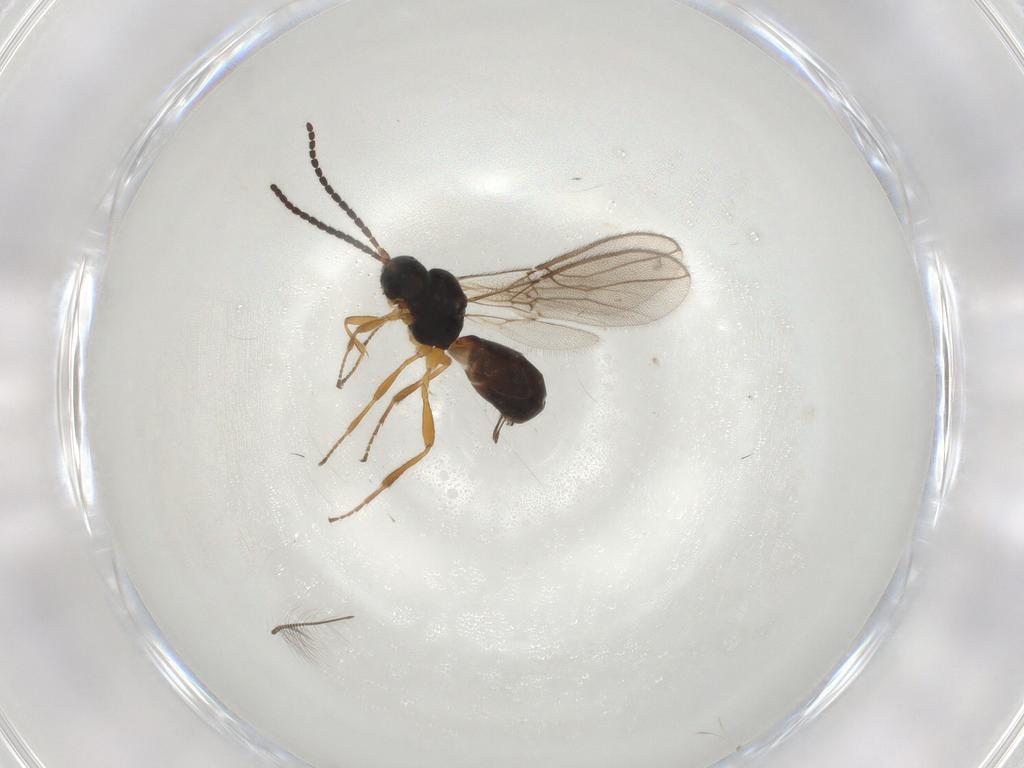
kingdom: Animalia
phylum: Arthropoda
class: Insecta
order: Hymenoptera
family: Braconidae
